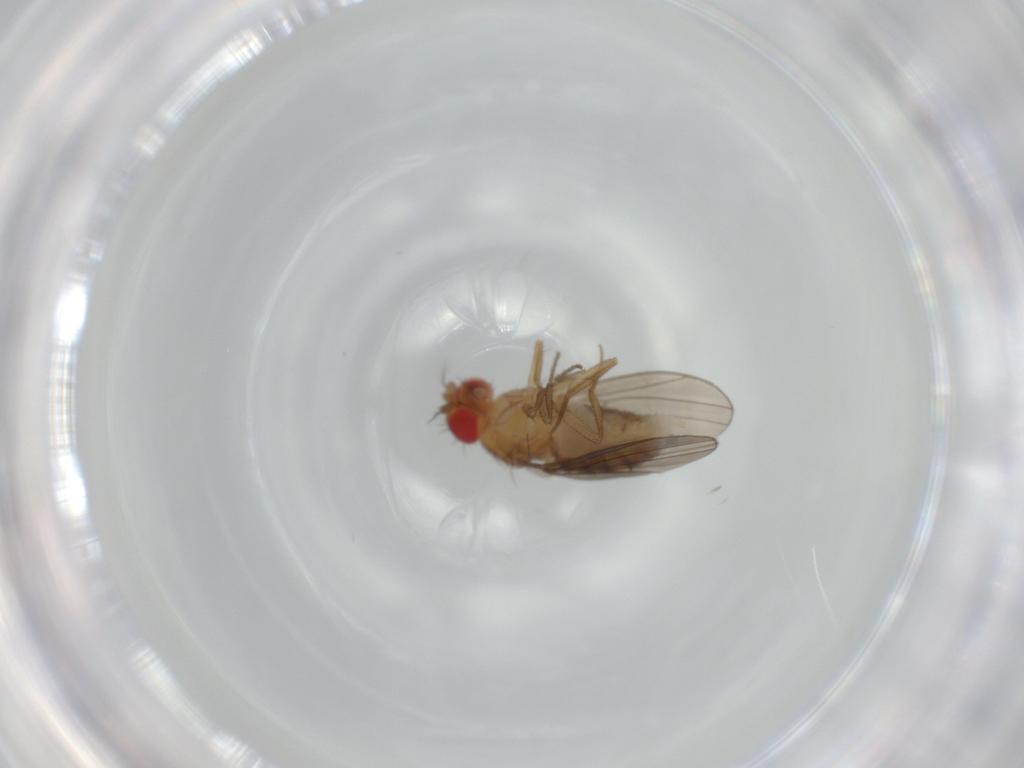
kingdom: Animalia
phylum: Arthropoda
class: Insecta
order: Diptera
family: Drosophilidae
